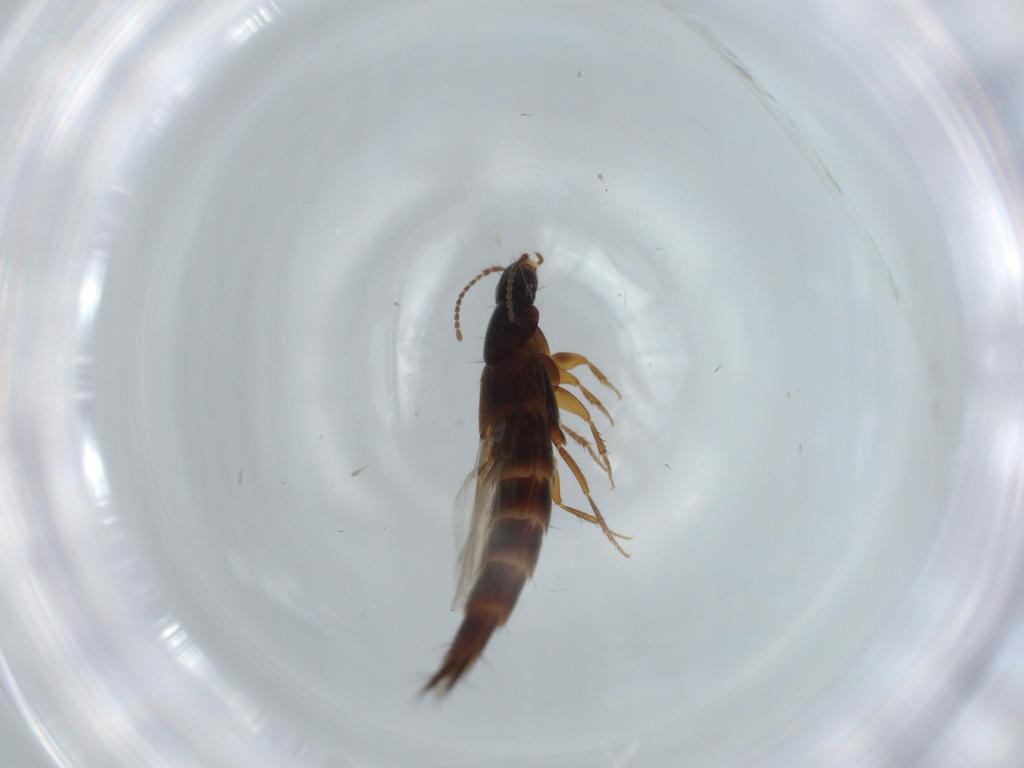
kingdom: Animalia
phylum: Arthropoda
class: Insecta
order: Coleoptera
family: Staphylinidae
